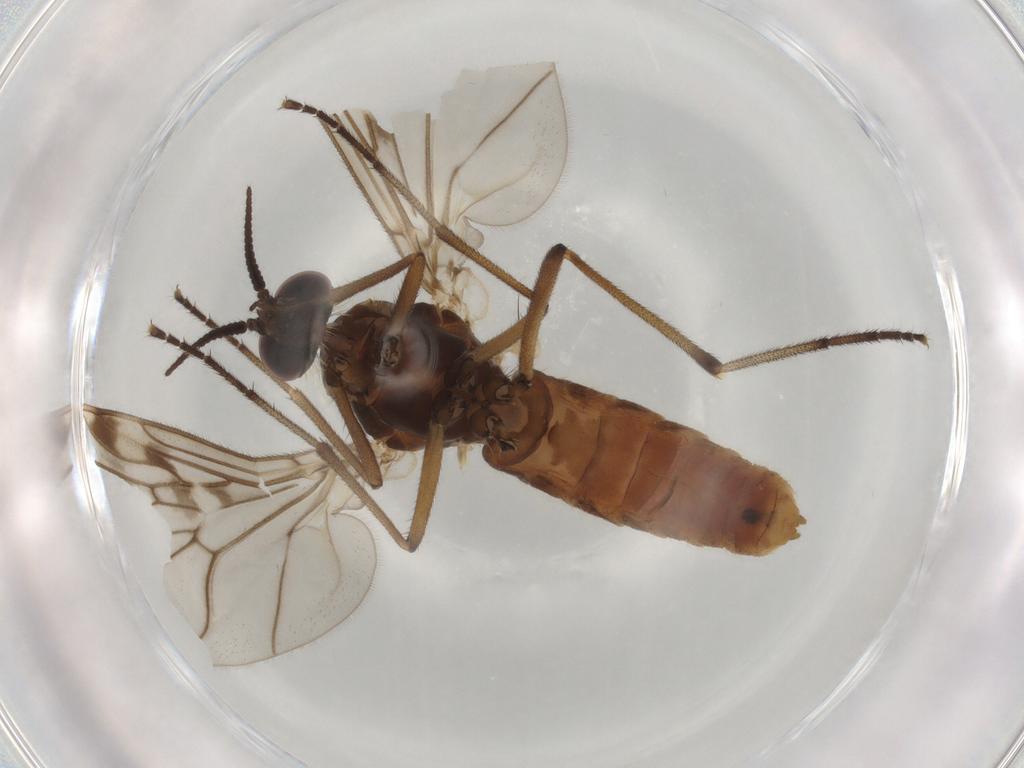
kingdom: Animalia
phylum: Arthropoda
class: Insecta
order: Diptera
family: Anisopodidae
